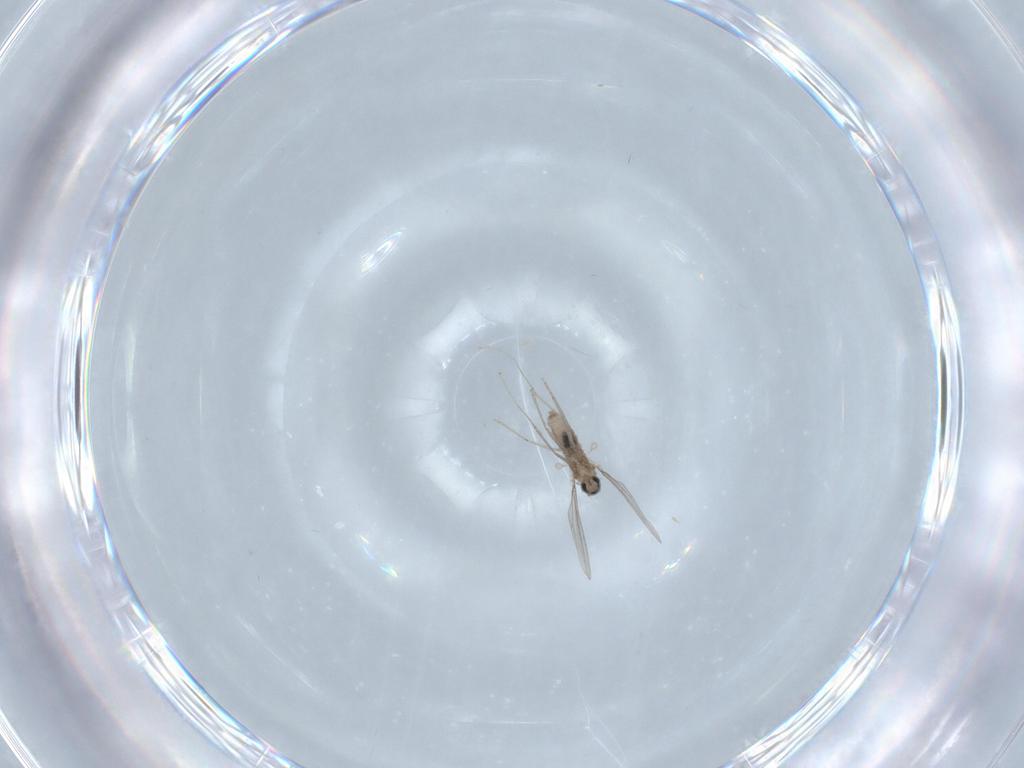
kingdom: Animalia
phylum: Arthropoda
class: Insecta
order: Diptera
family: Cecidomyiidae
